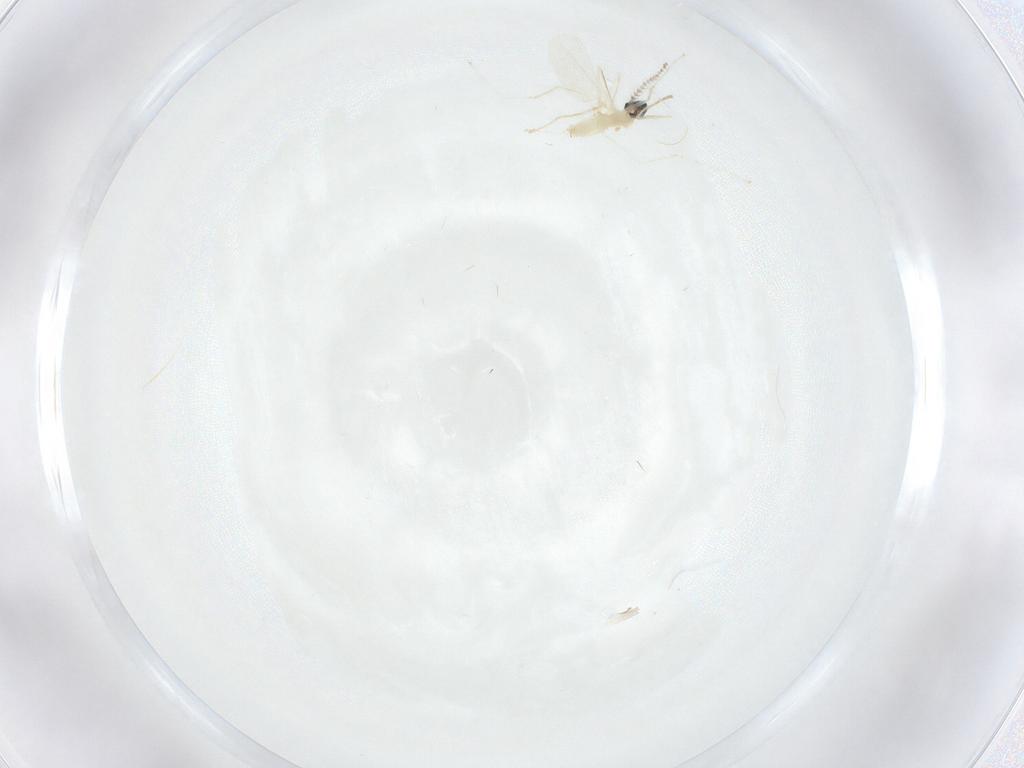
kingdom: Animalia
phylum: Arthropoda
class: Insecta
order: Diptera
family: Cecidomyiidae
